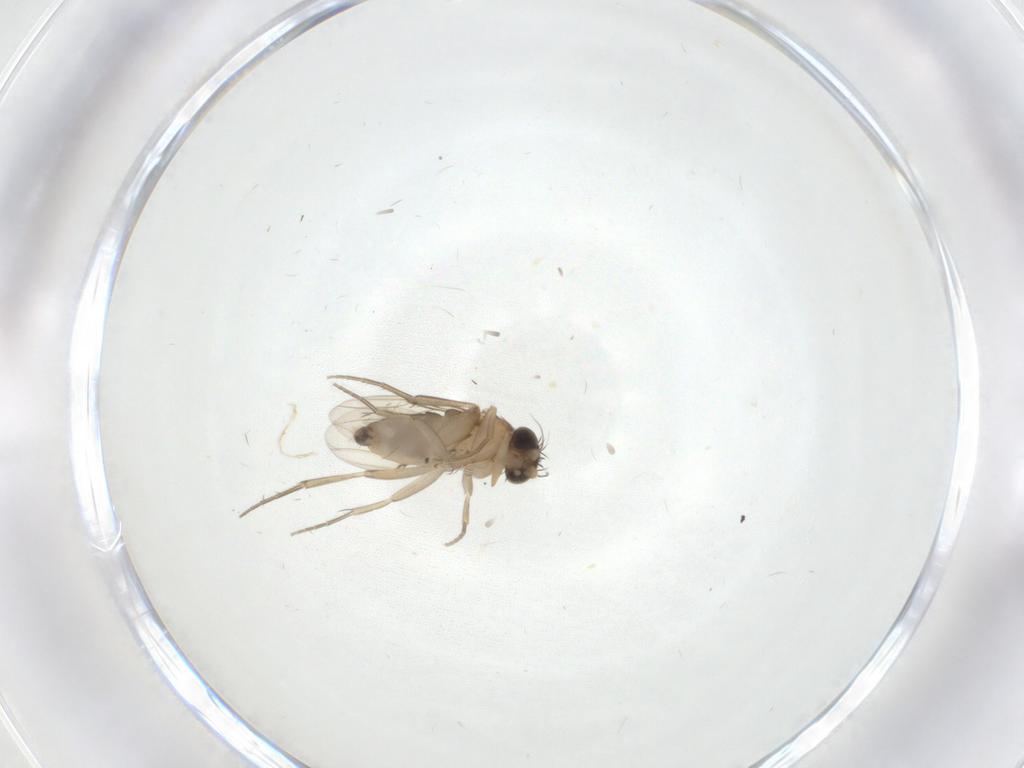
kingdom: Animalia
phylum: Arthropoda
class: Insecta
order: Diptera
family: Phoridae
